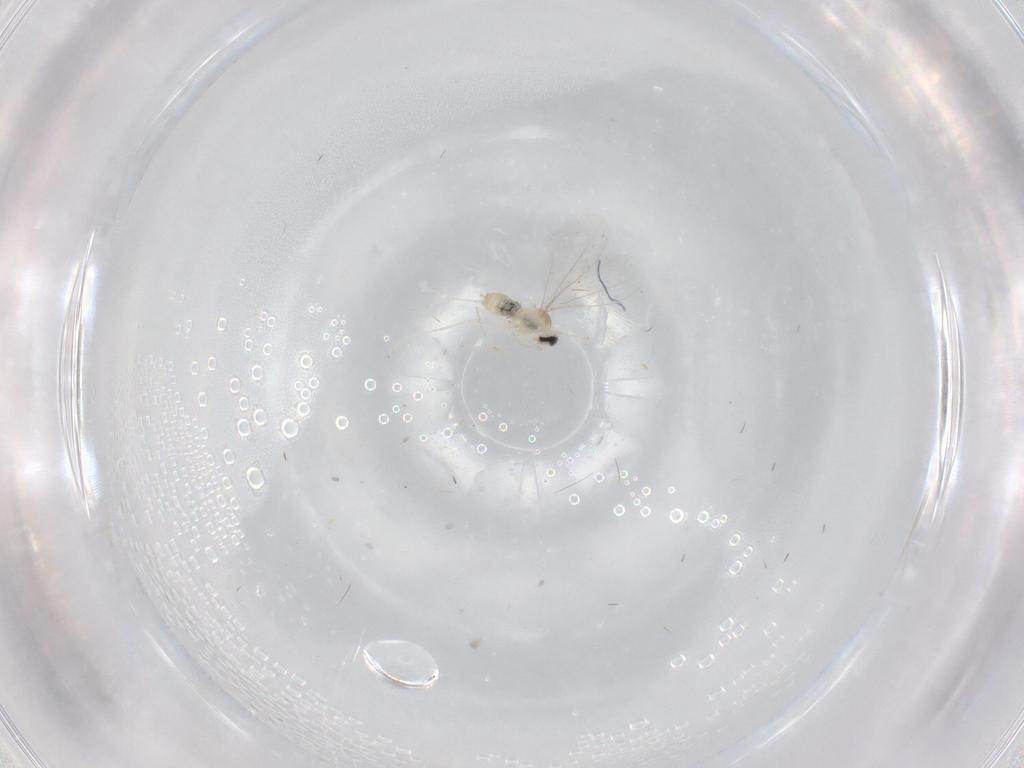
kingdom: Animalia
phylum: Arthropoda
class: Insecta
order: Diptera
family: Cecidomyiidae
